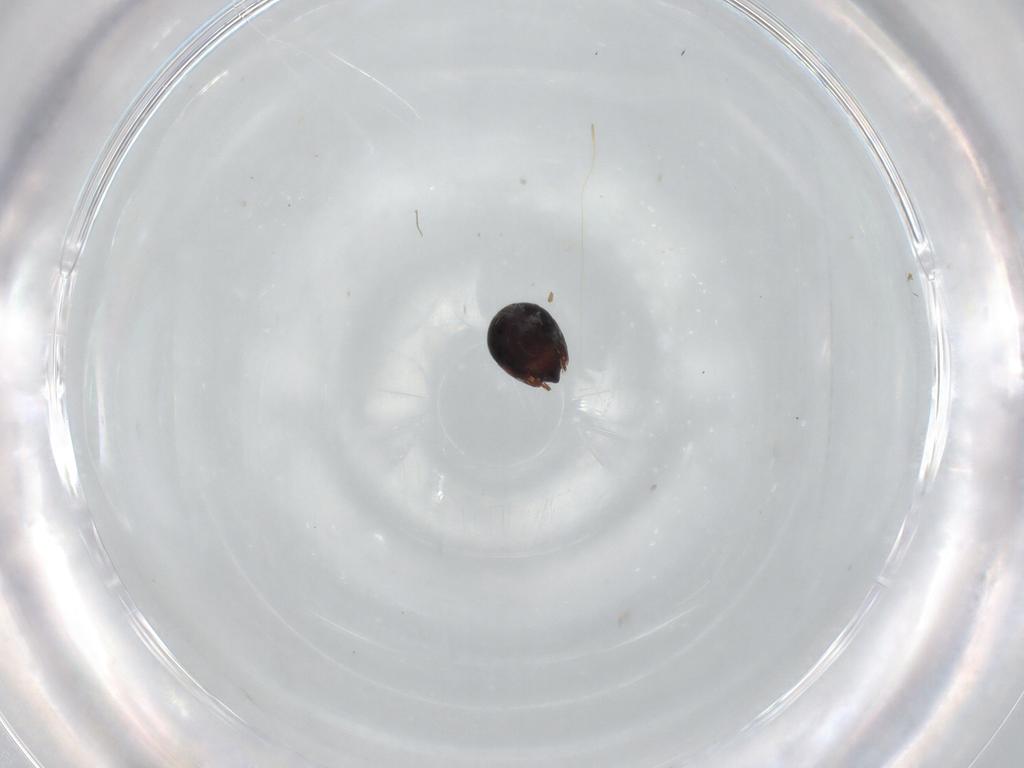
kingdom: Animalia
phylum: Arthropoda
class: Arachnida
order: Sarcoptiformes
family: Ceratozetidae
